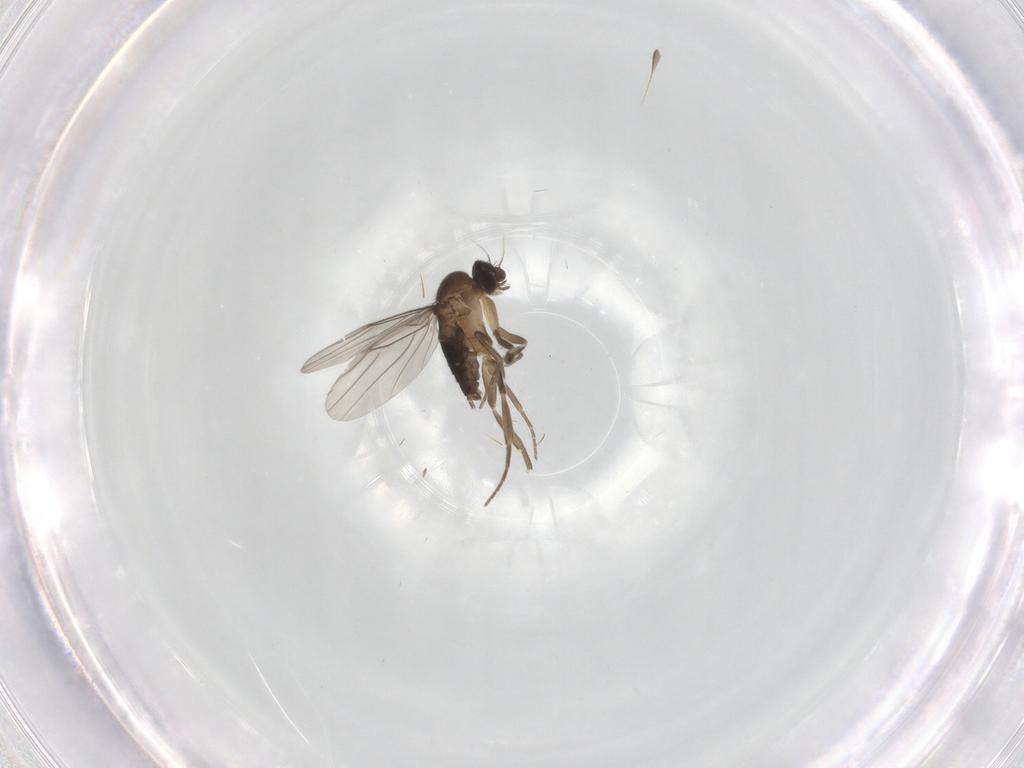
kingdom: Animalia
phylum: Arthropoda
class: Insecta
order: Diptera
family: Phoridae
